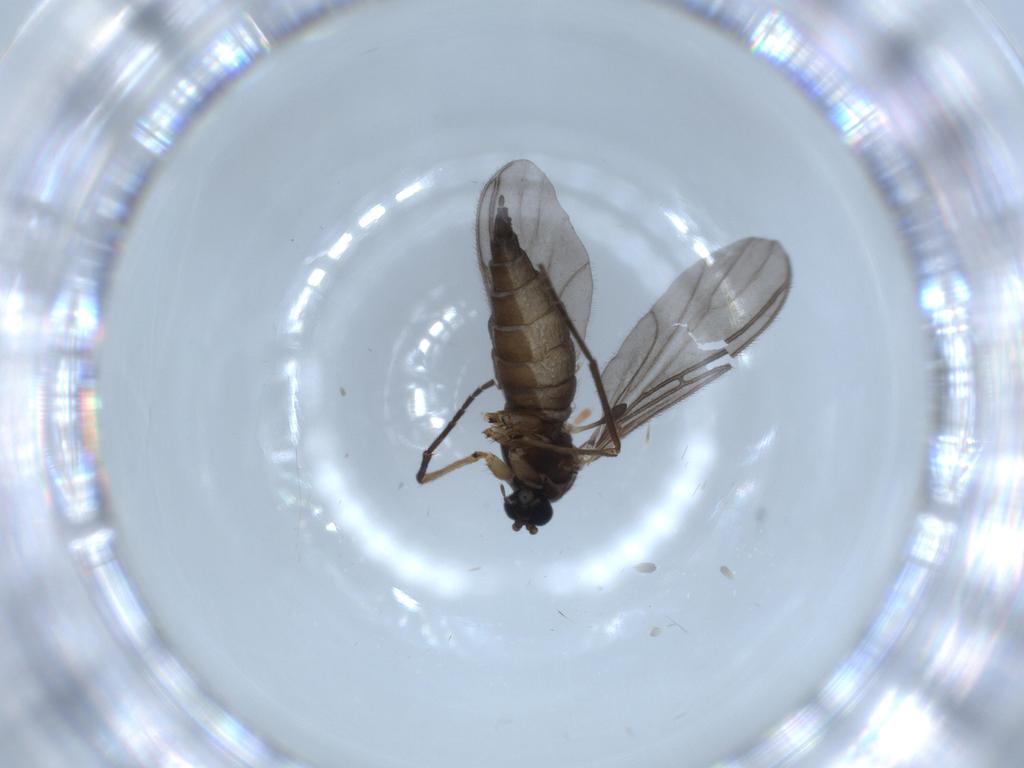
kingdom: Animalia
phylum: Arthropoda
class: Insecta
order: Diptera
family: Sciaridae
